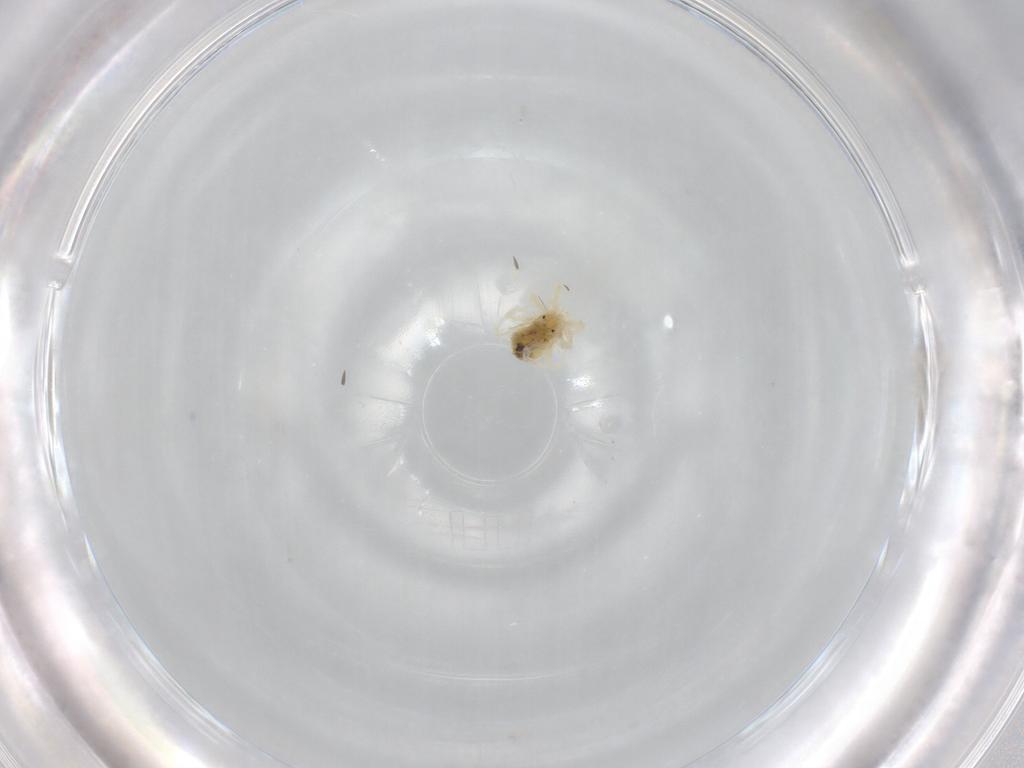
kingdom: Animalia
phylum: Arthropoda
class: Arachnida
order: Trombidiformes
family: Anystidae
